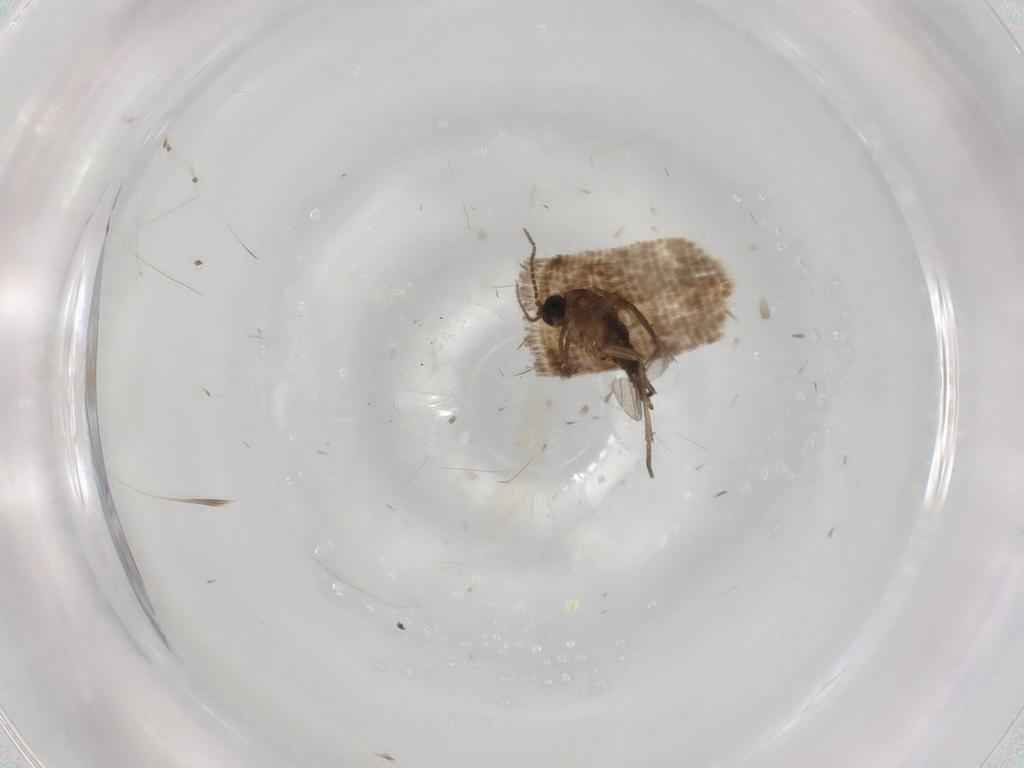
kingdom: Animalia
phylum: Arthropoda
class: Insecta
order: Diptera
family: Sciaridae
